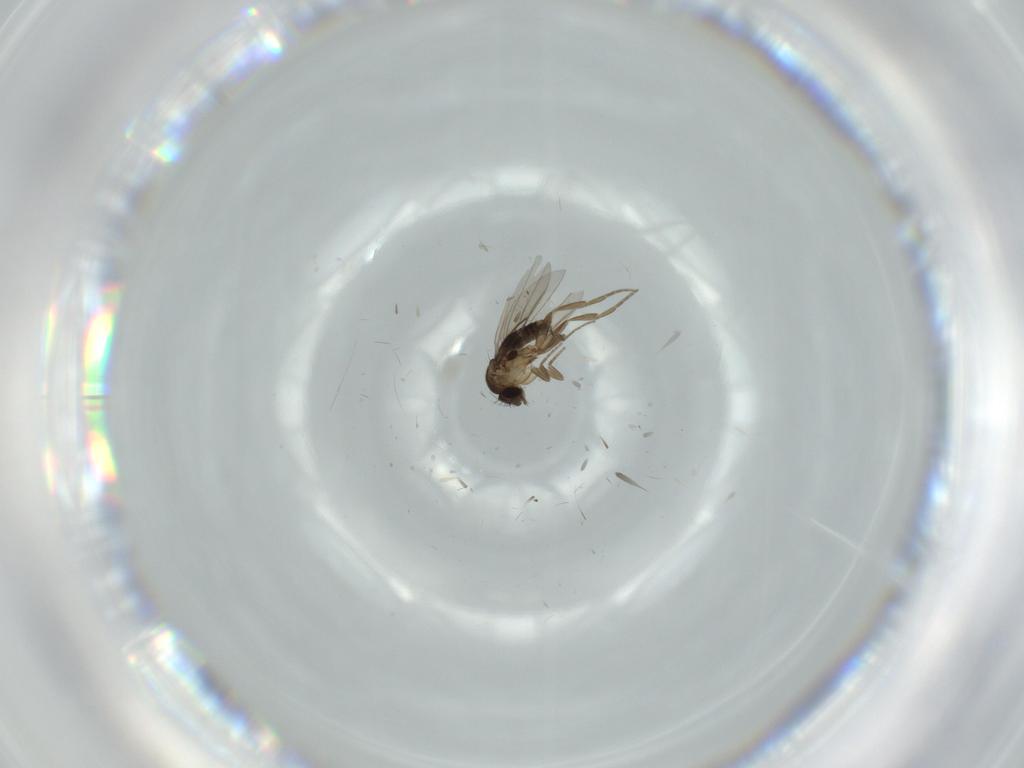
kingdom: Animalia
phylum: Arthropoda
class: Insecta
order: Diptera
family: Phoridae
